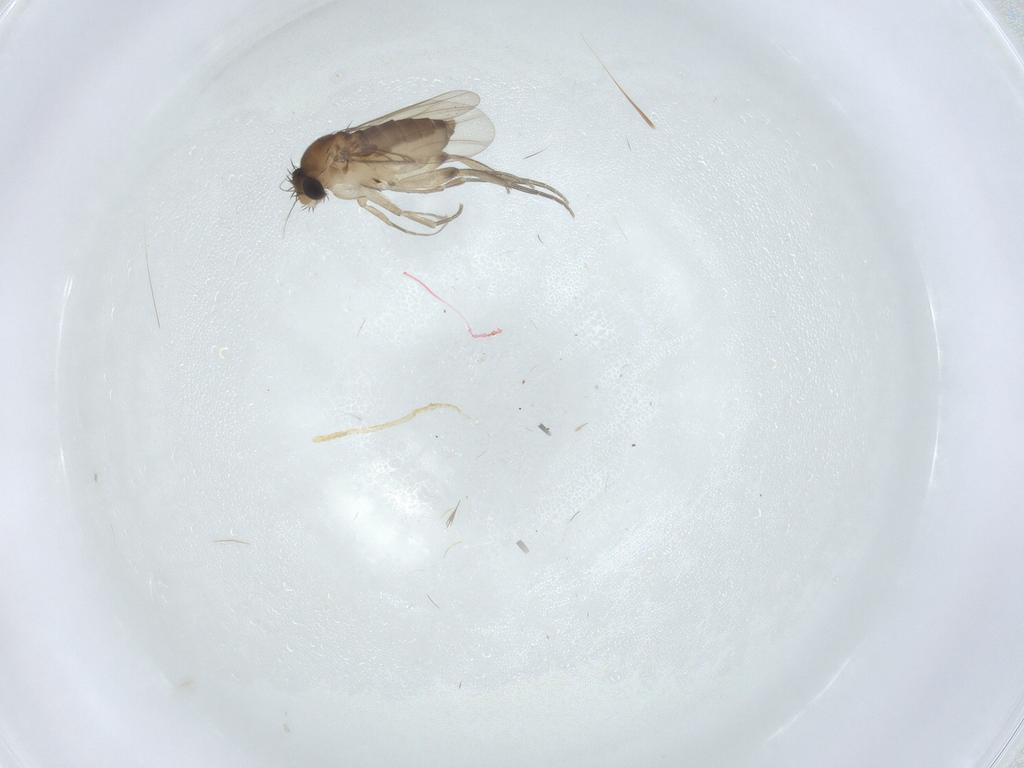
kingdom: Animalia
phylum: Arthropoda
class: Insecta
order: Diptera
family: Phoridae
